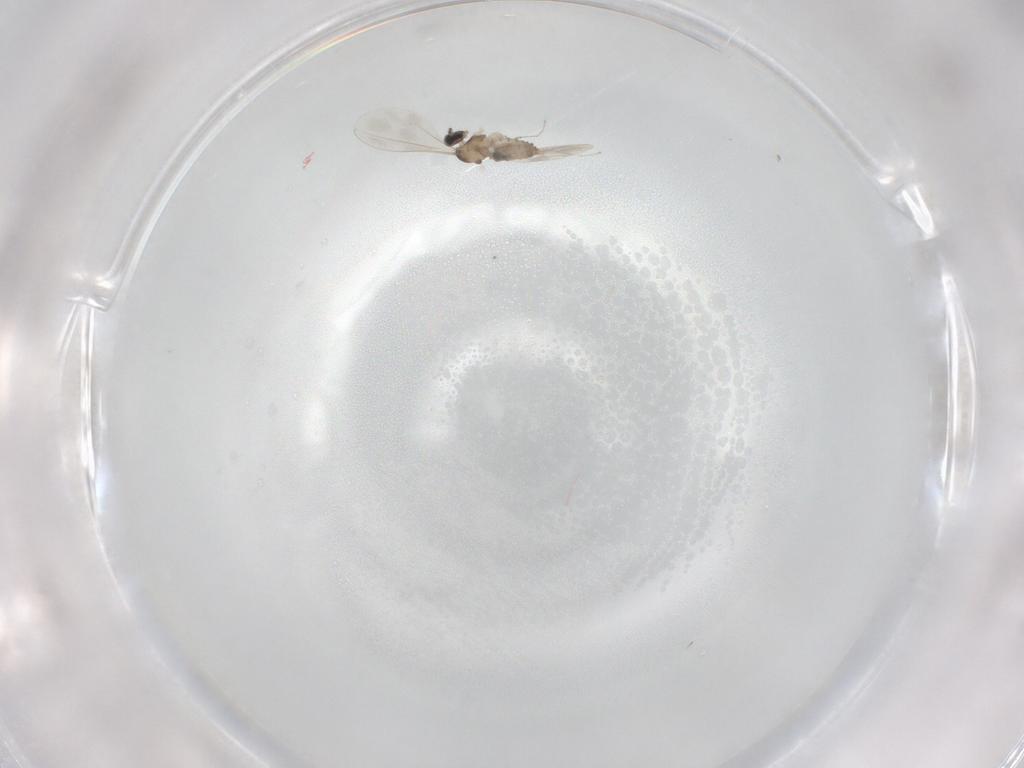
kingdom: Animalia
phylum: Arthropoda
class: Insecta
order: Diptera
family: Cecidomyiidae
